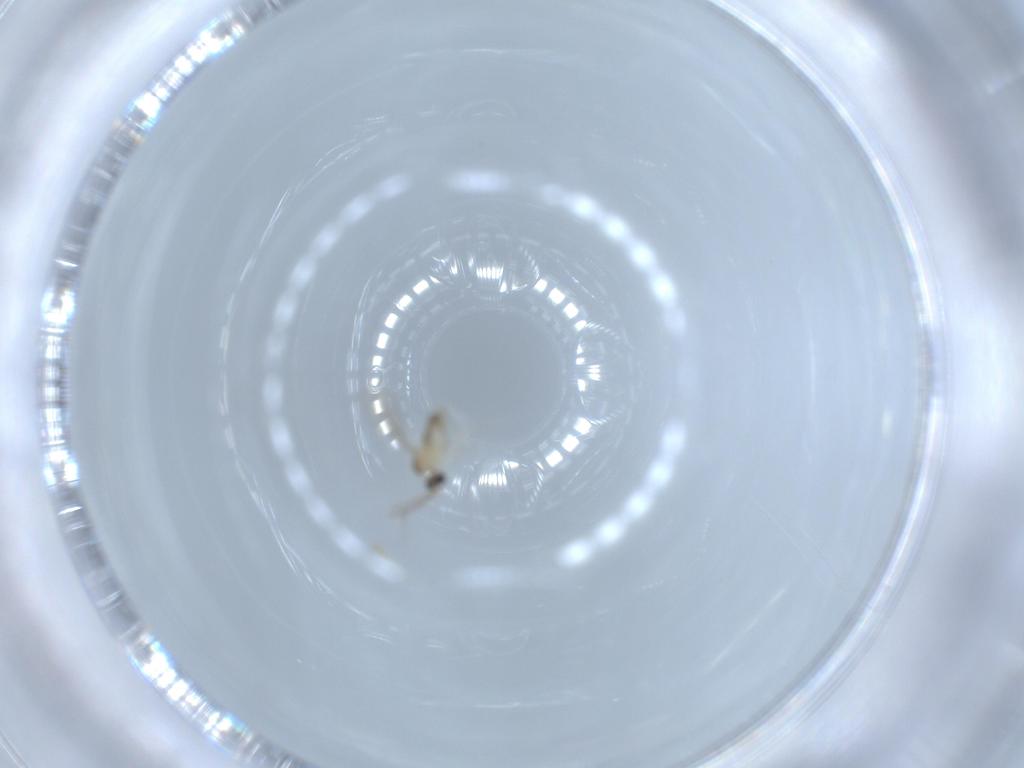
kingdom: Animalia
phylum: Arthropoda
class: Insecta
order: Diptera
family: Cecidomyiidae
